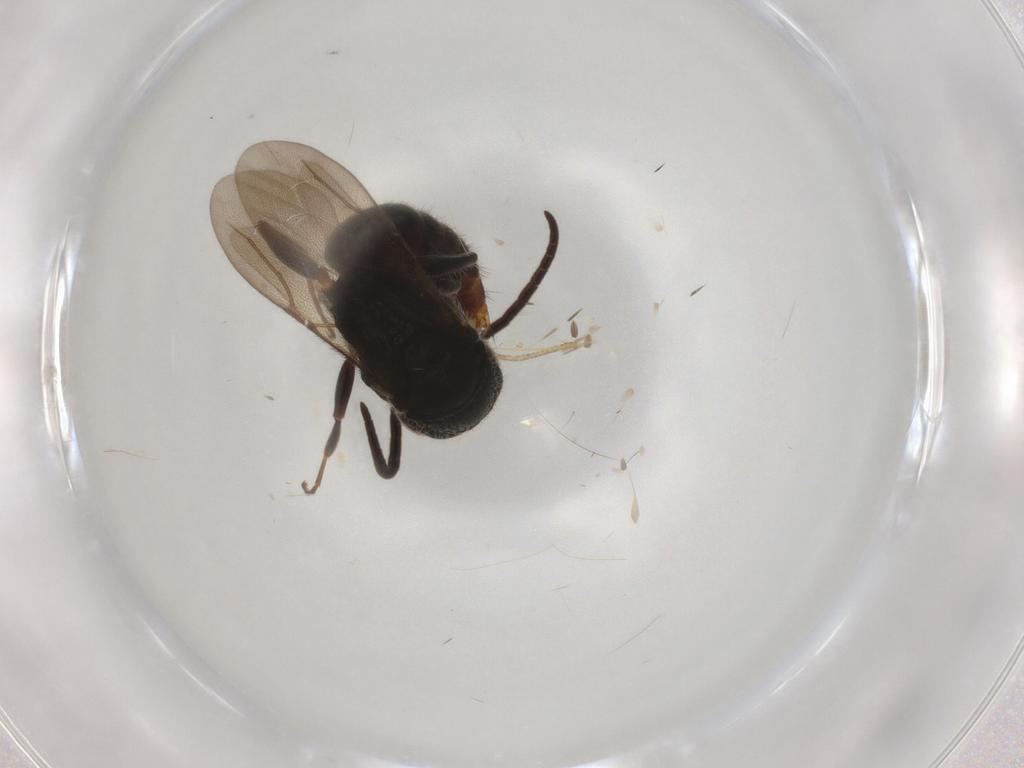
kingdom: Animalia
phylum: Arthropoda
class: Insecta
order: Hymenoptera
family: Bethylidae
